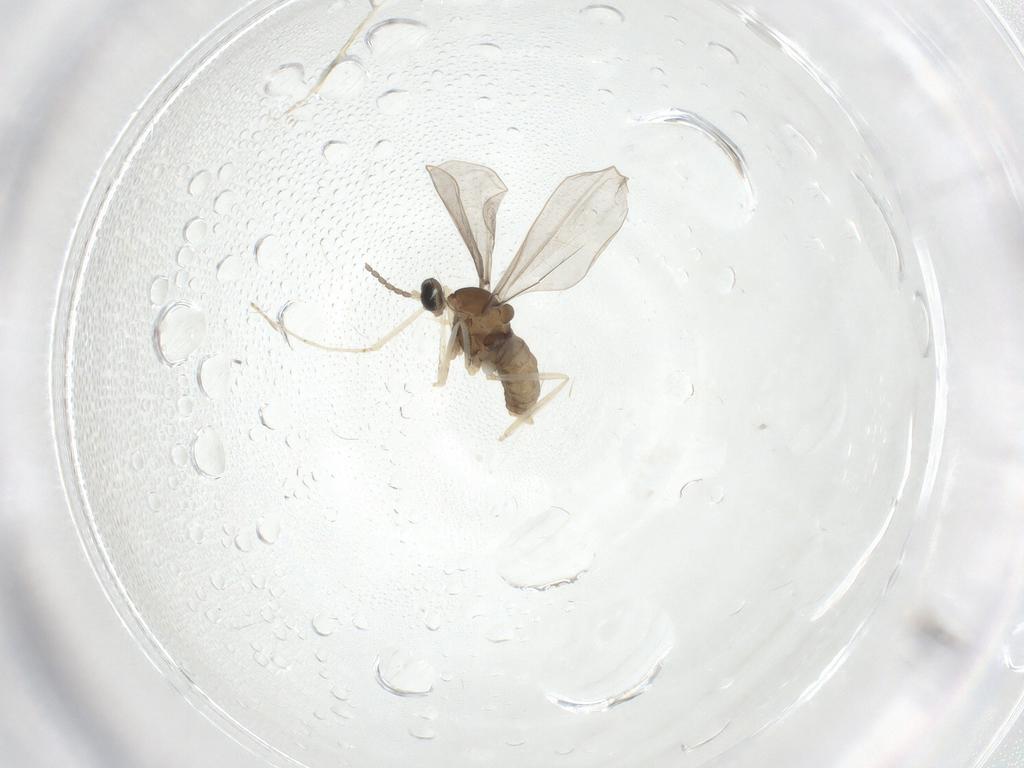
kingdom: Animalia
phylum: Arthropoda
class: Insecta
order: Diptera
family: Cecidomyiidae
